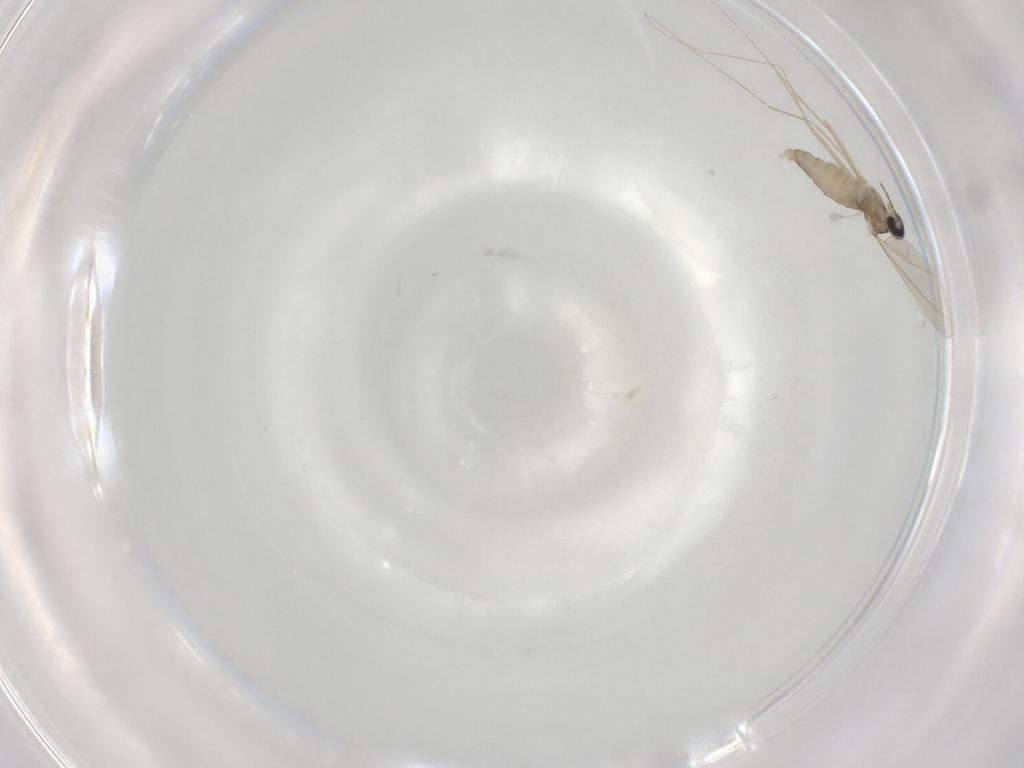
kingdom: Animalia
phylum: Arthropoda
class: Insecta
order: Diptera
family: Cecidomyiidae
